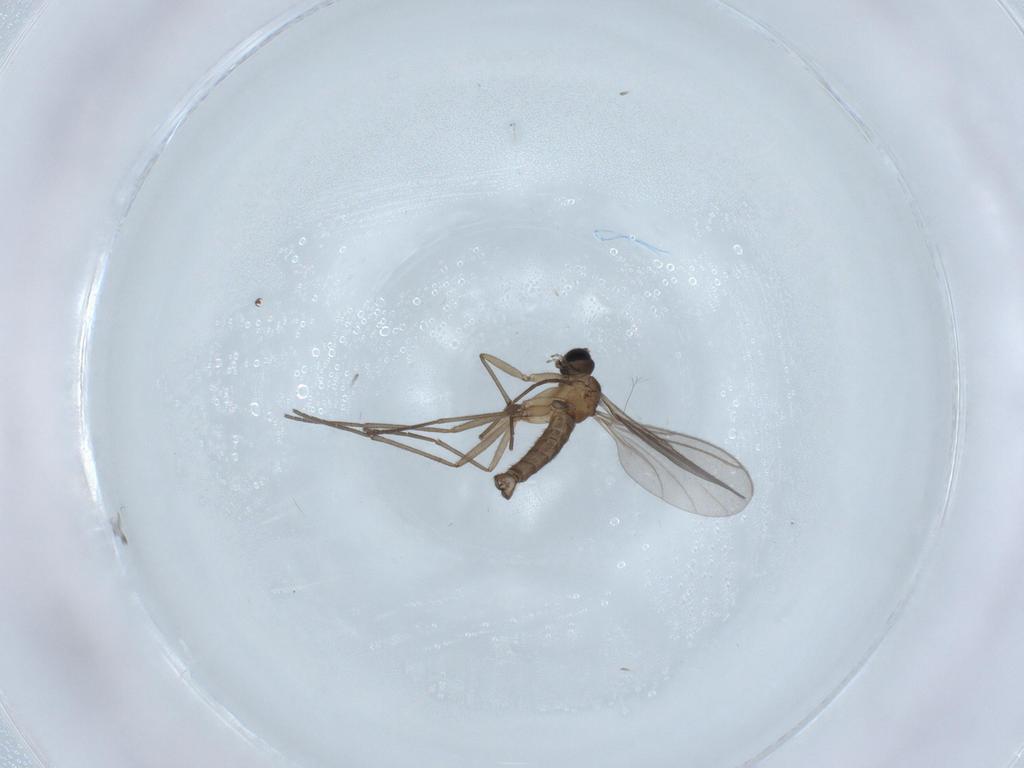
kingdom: Animalia
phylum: Arthropoda
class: Insecta
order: Diptera
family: Sciaridae
